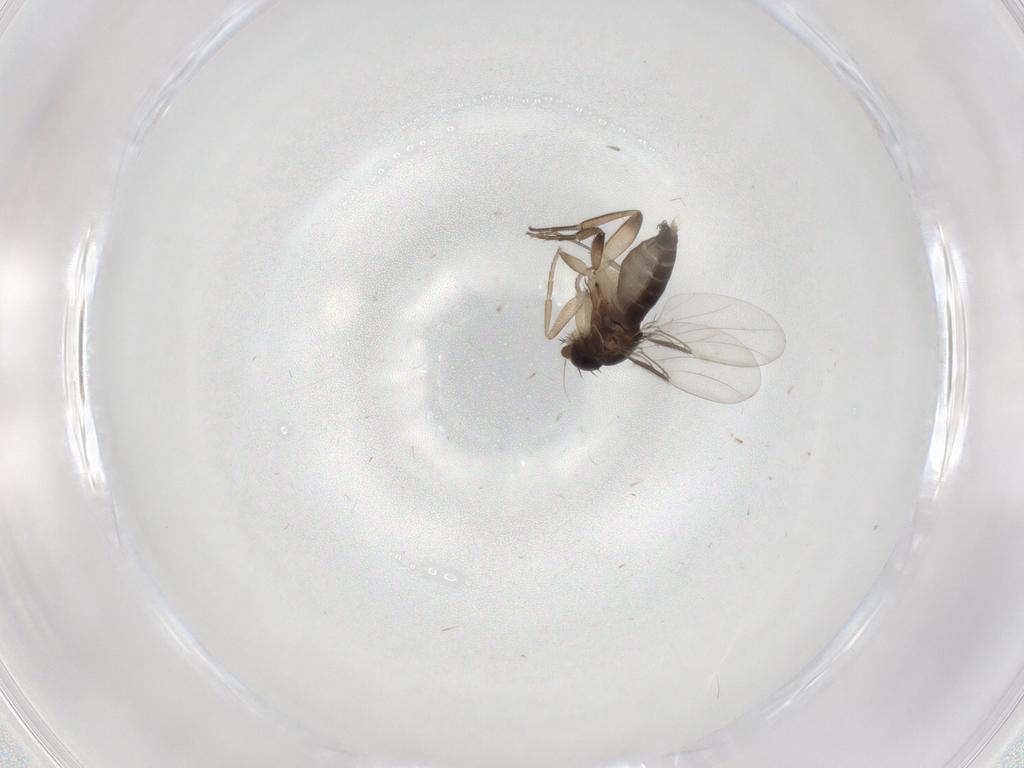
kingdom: Animalia
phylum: Arthropoda
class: Insecta
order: Diptera
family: Phoridae
